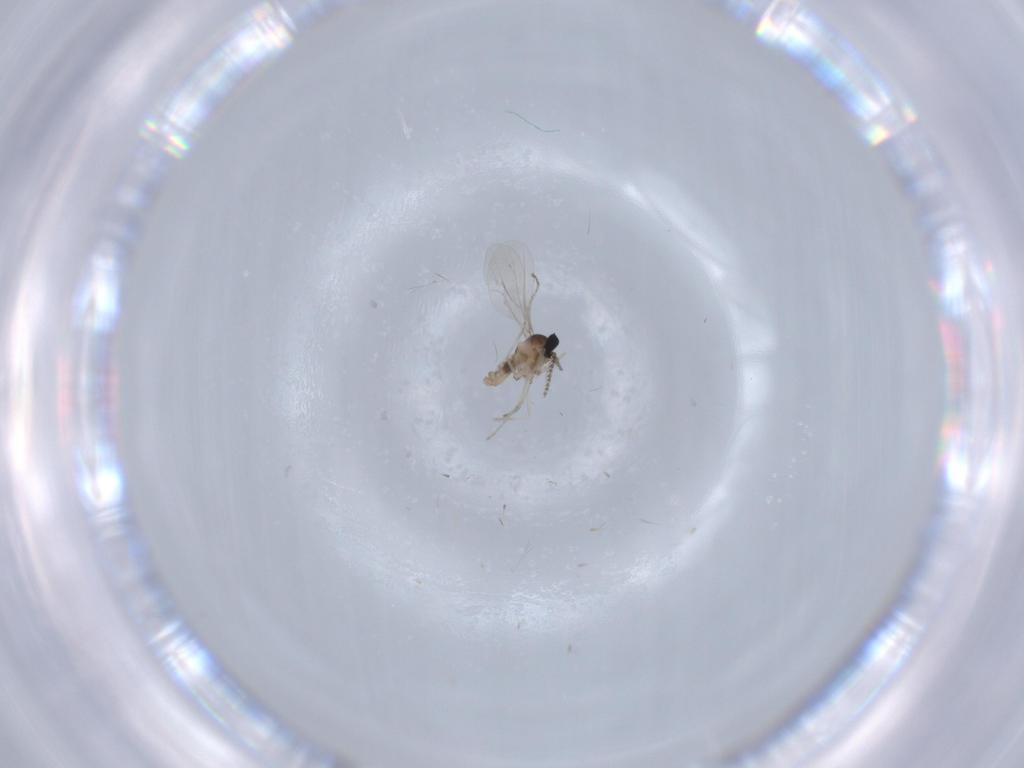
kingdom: Animalia
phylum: Arthropoda
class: Insecta
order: Diptera
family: Cecidomyiidae
